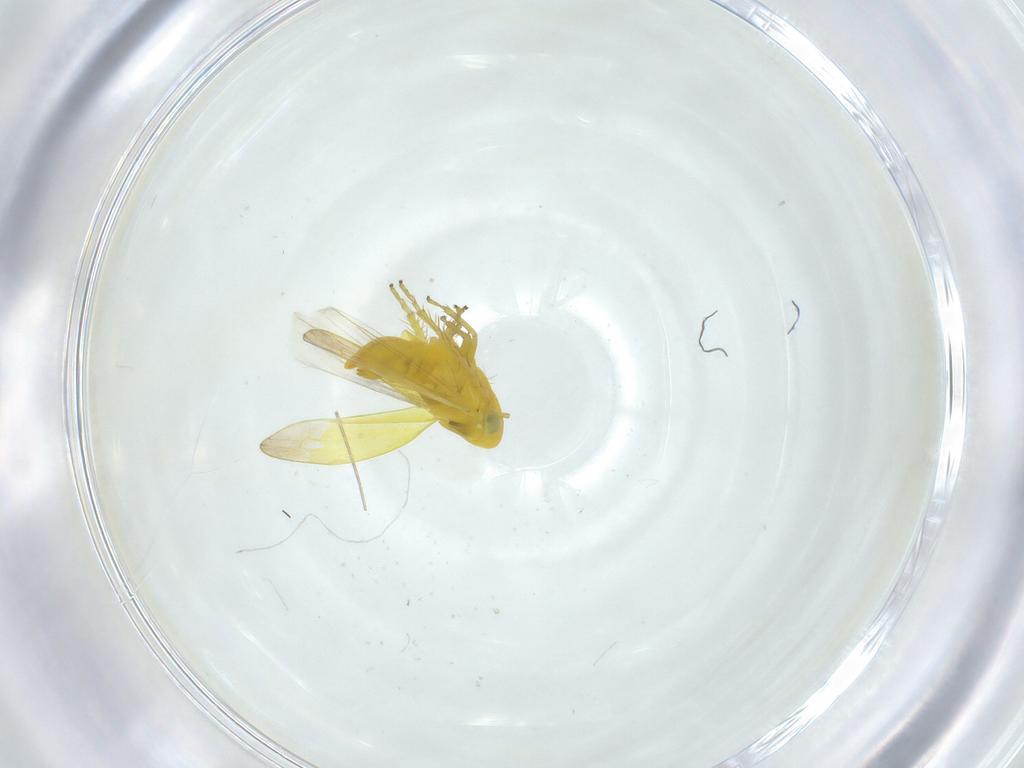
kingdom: Animalia
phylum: Arthropoda
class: Insecta
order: Hemiptera
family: Cicadellidae
